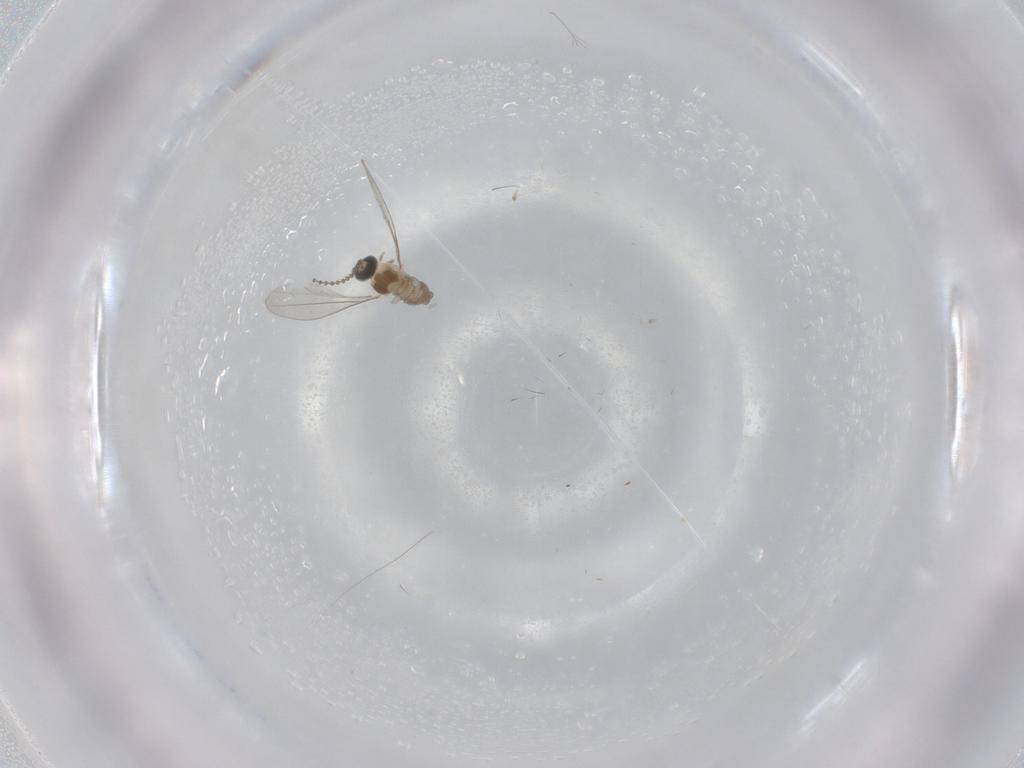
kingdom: Animalia
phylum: Arthropoda
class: Insecta
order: Diptera
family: Cecidomyiidae
